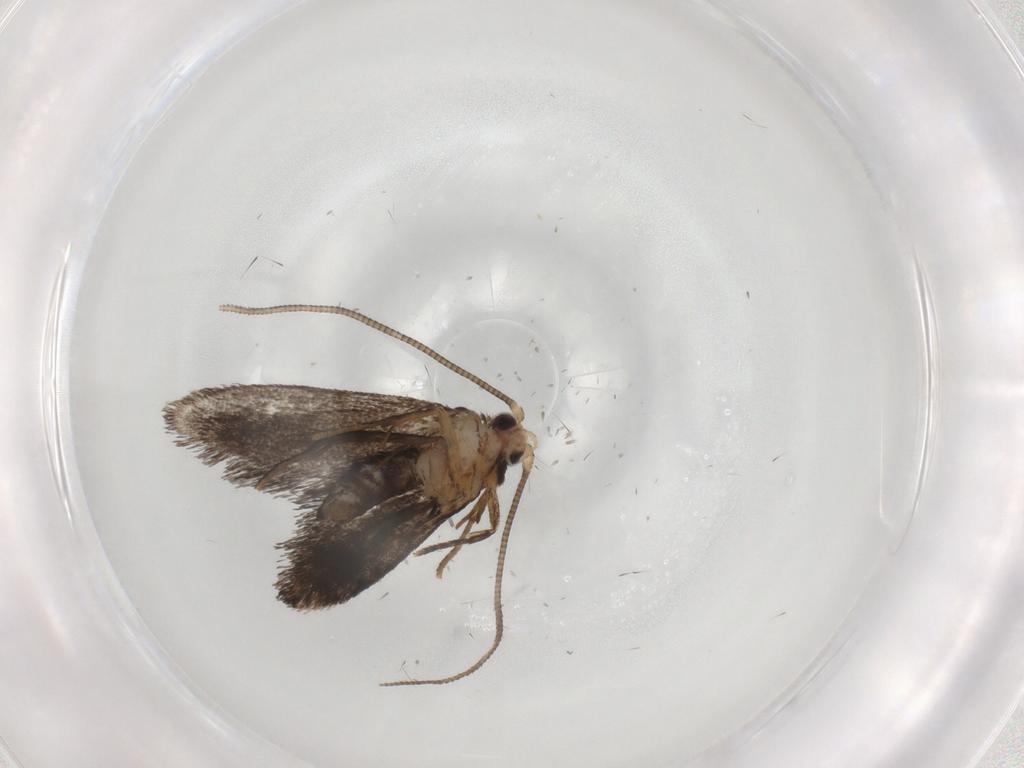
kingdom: Animalia
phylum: Arthropoda
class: Insecta
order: Lepidoptera
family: Nepticulidae
